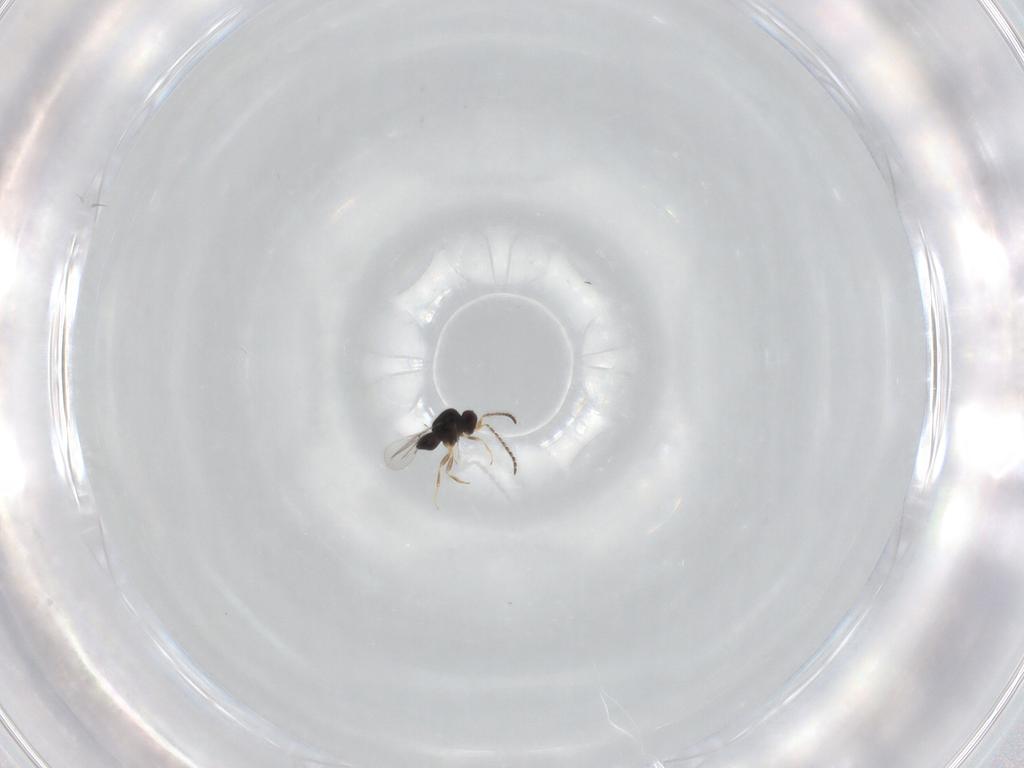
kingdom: Animalia
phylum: Arthropoda
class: Insecta
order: Hymenoptera
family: Scelionidae
